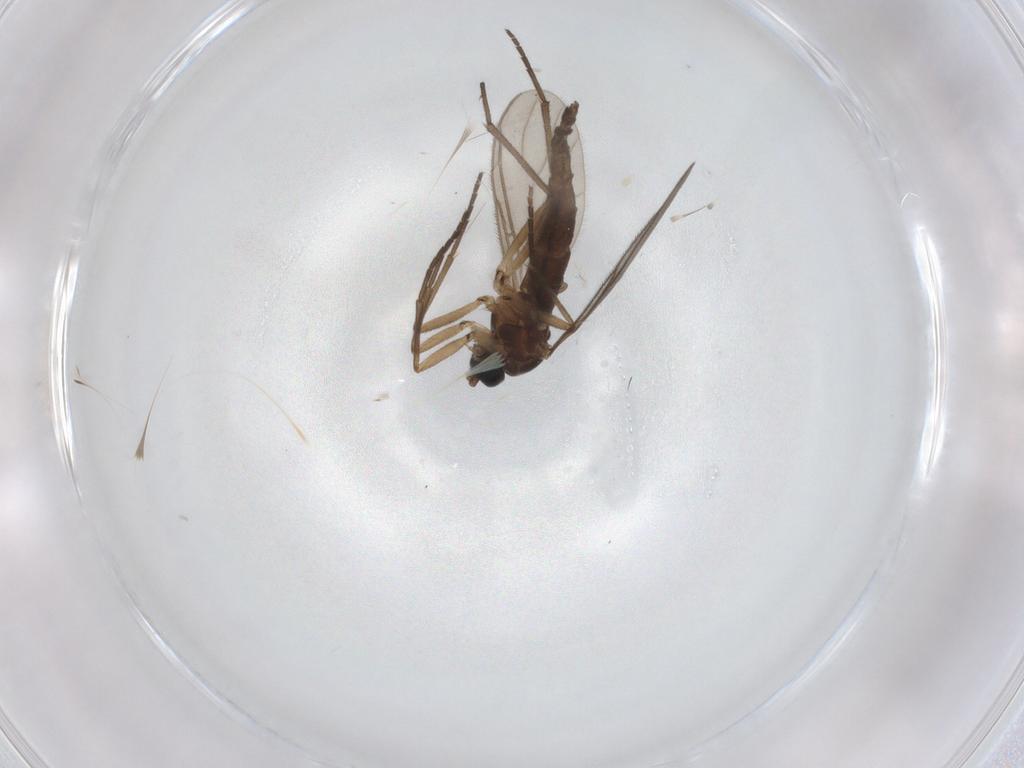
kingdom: Animalia
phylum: Arthropoda
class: Insecta
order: Diptera
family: Sciaridae
